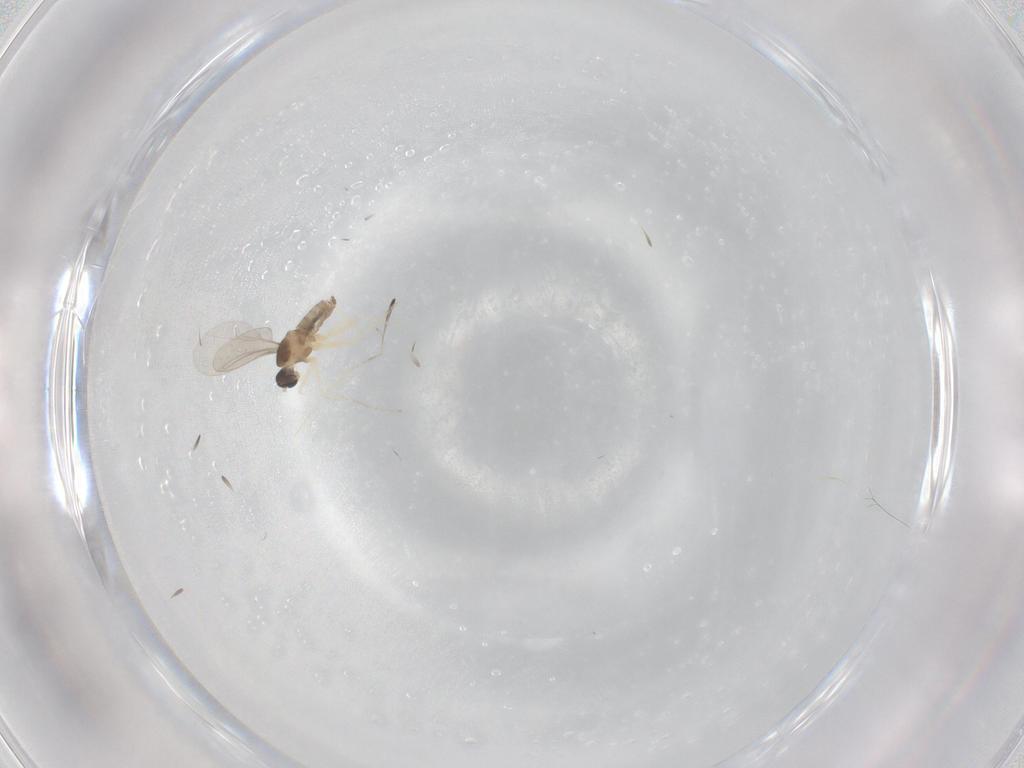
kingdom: Animalia
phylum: Arthropoda
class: Insecta
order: Diptera
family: Cecidomyiidae
